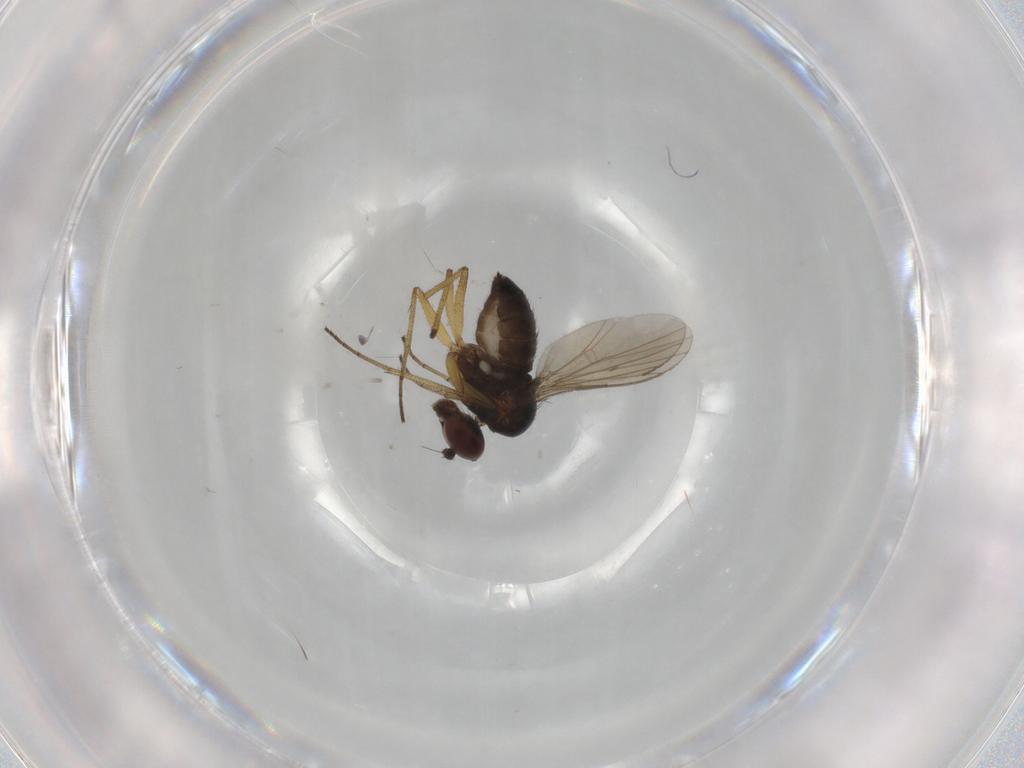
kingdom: Animalia
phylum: Arthropoda
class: Insecta
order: Diptera
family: Dolichopodidae
